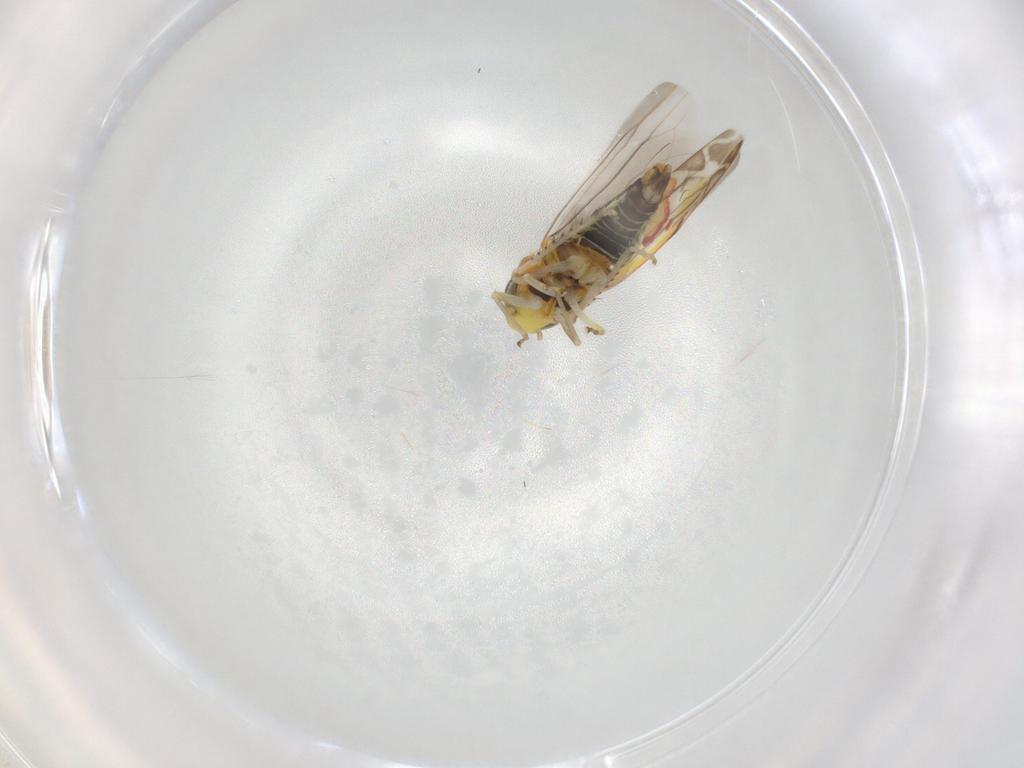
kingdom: Animalia
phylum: Arthropoda
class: Insecta
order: Hemiptera
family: Cicadellidae
